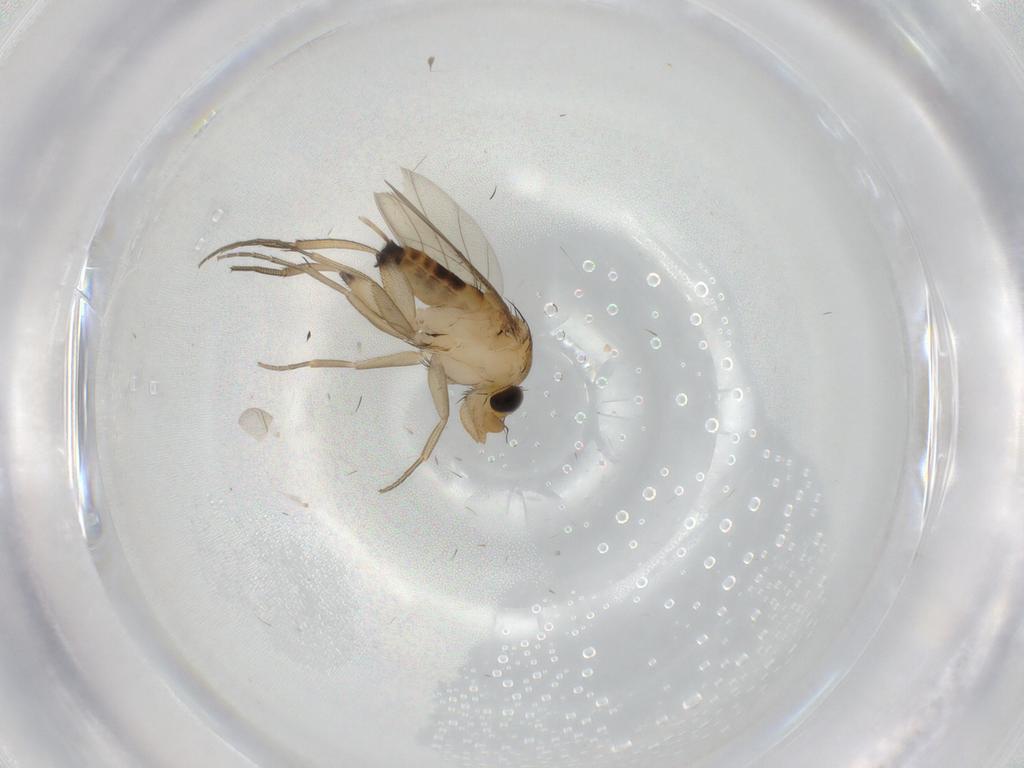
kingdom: Animalia
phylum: Arthropoda
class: Insecta
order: Diptera
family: Phoridae
